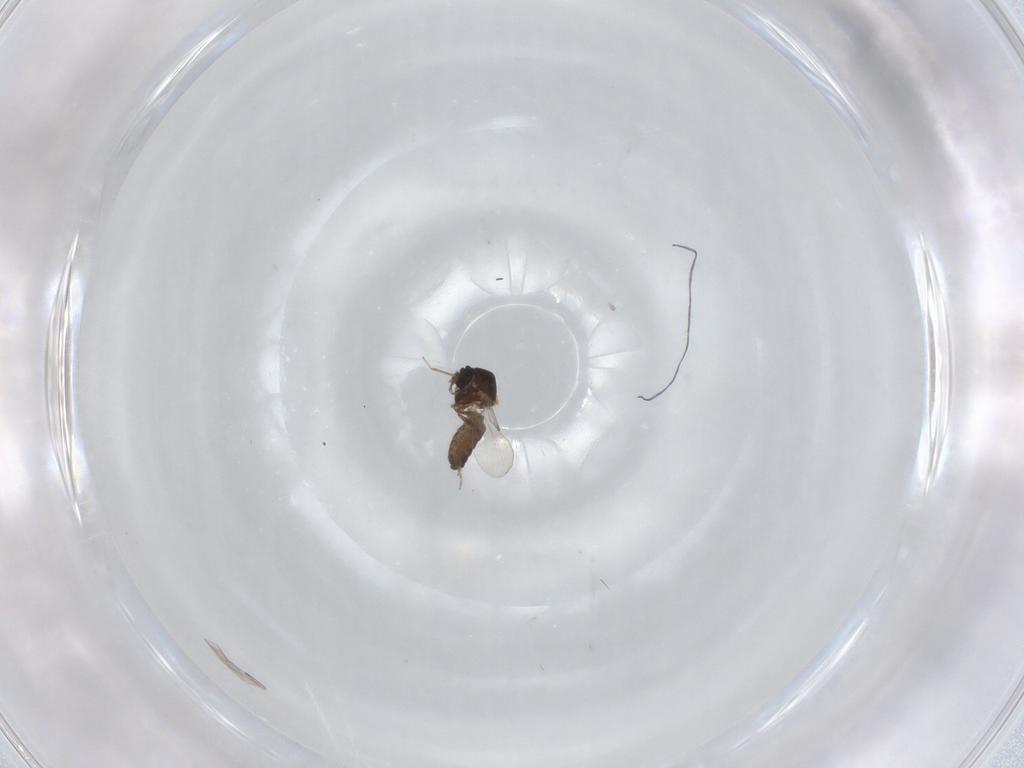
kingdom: Animalia
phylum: Arthropoda
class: Insecta
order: Diptera
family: Ceratopogonidae
